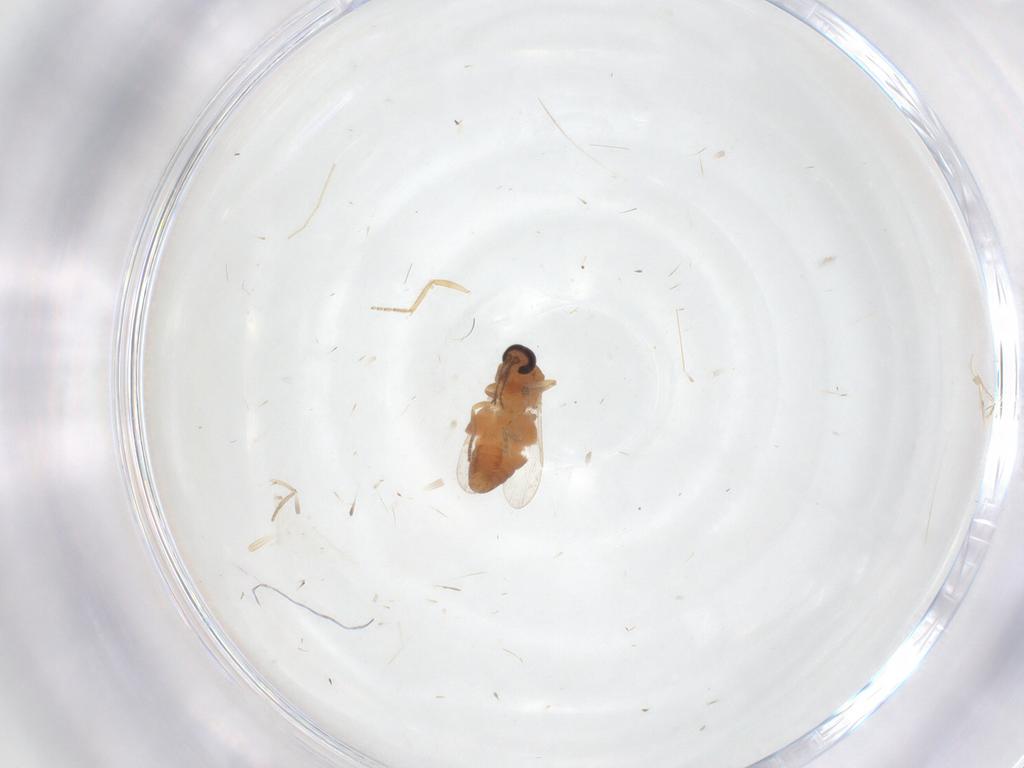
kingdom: Animalia
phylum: Arthropoda
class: Insecta
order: Diptera
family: Ceratopogonidae
